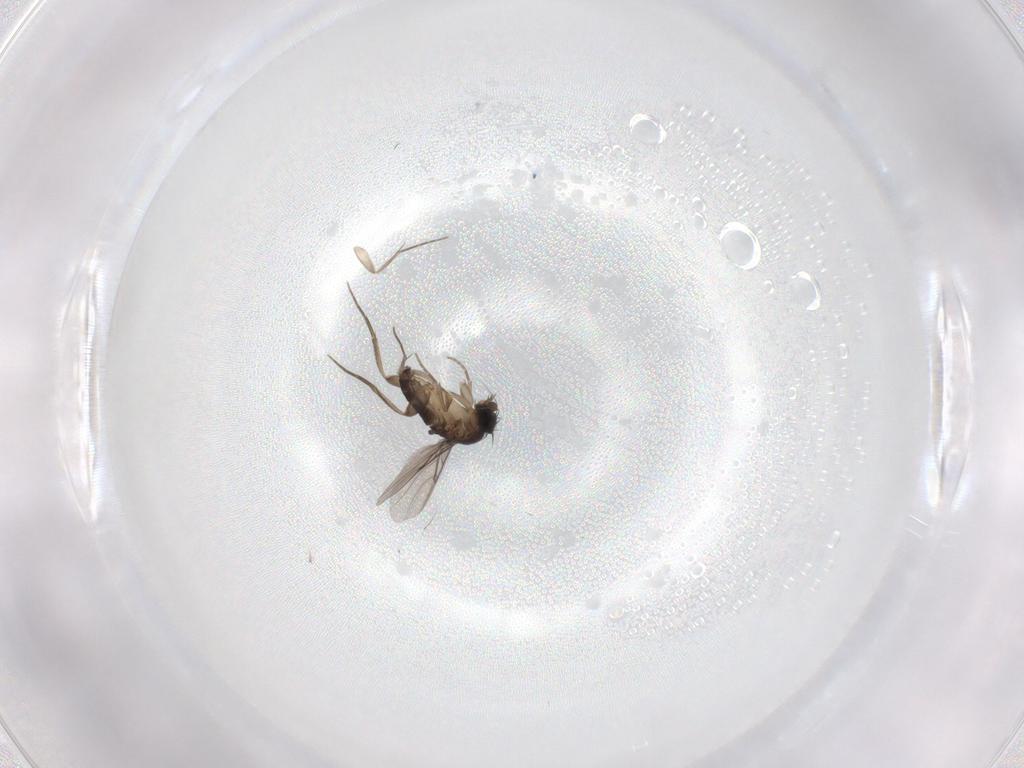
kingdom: Animalia
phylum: Arthropoda
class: Insecta
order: Diptera
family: Phoridae
